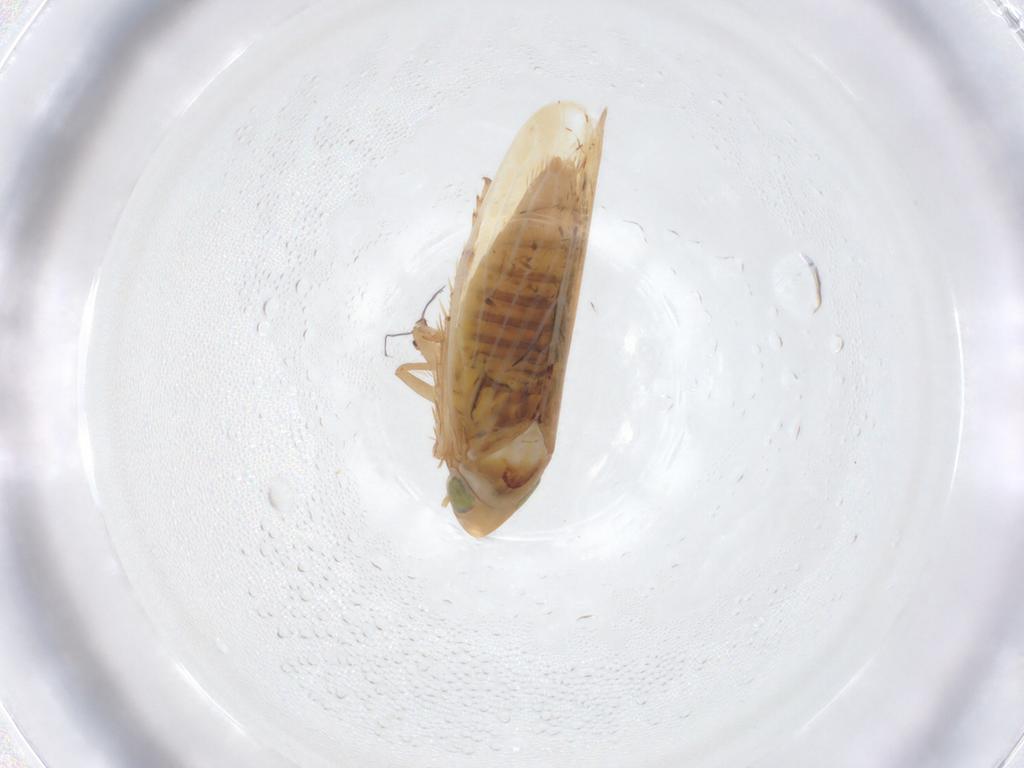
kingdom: Animalia
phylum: Arthropoda
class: Insecta
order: Hemiptera
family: Cicadellidae
